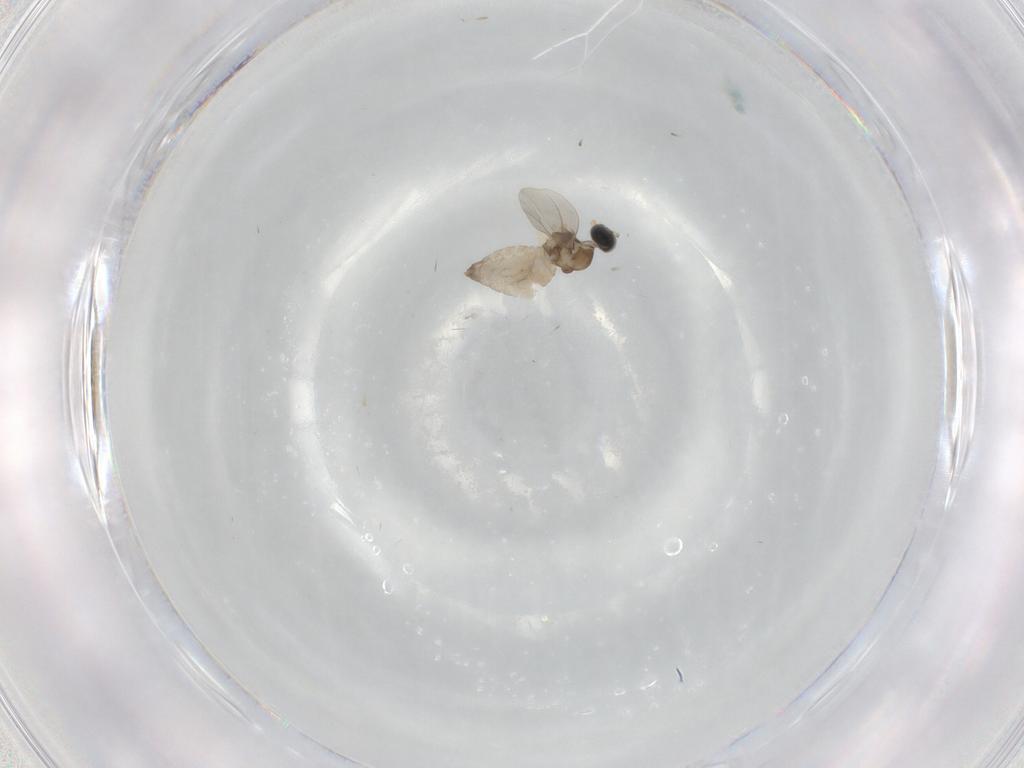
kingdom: Animalia
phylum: Arthropoda
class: Insecta
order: Diptera
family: Cecidomyiidae
